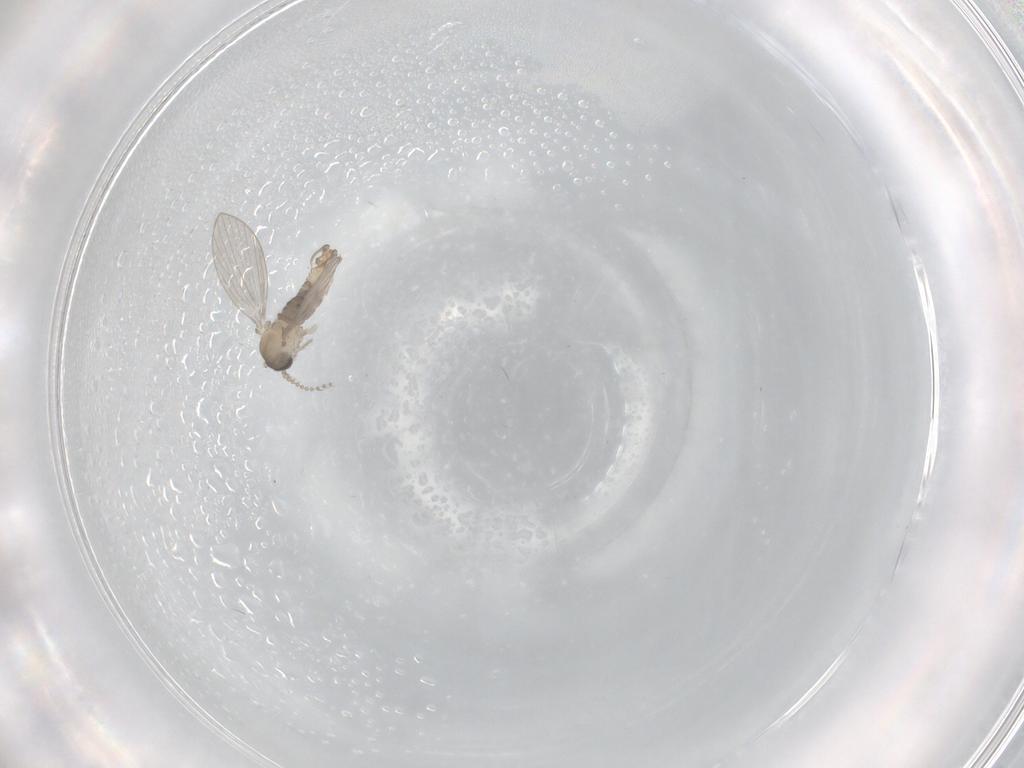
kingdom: Animalia
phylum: Arthropoda
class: Insecta
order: Diptera
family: Psychodidae
